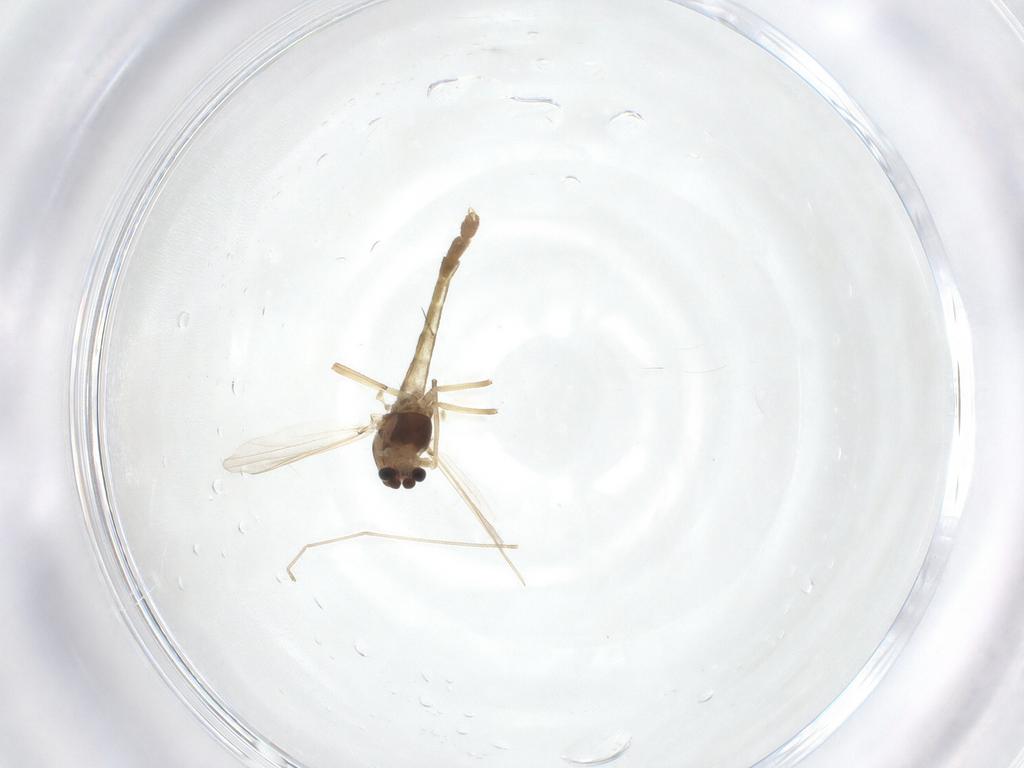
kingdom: Animalia
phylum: Arthropoda
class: Insecta
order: Diptera
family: Chironomidae
